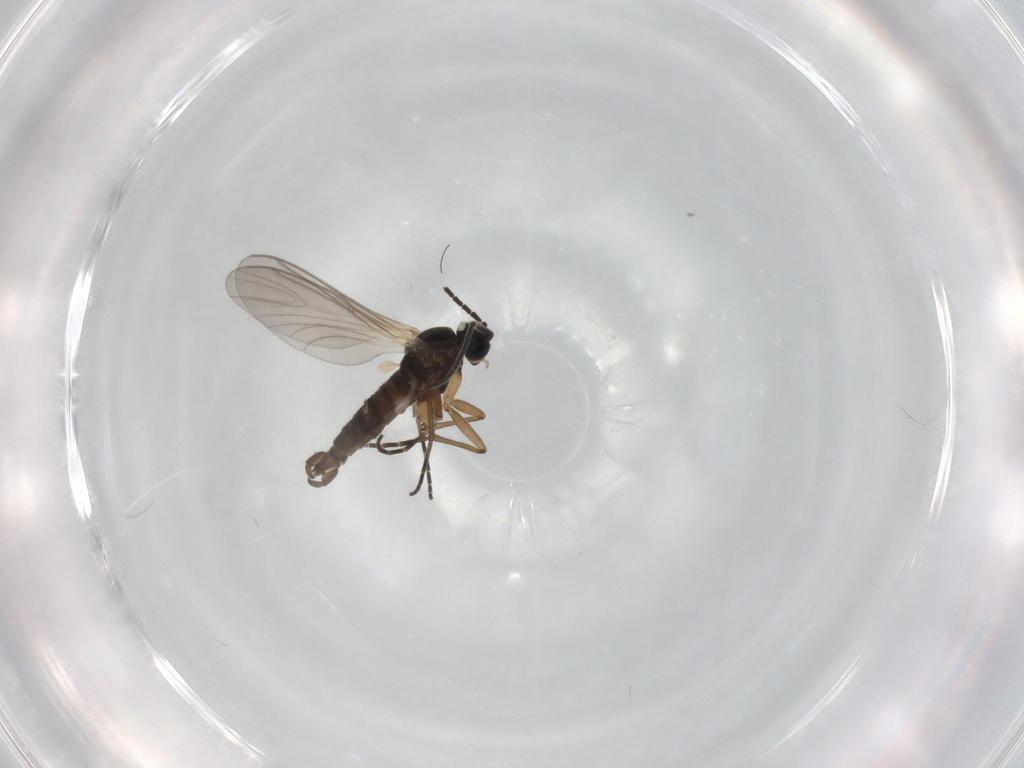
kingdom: Animalia
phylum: Arthropoda
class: Insecta
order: Diptera
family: Sciaridae
